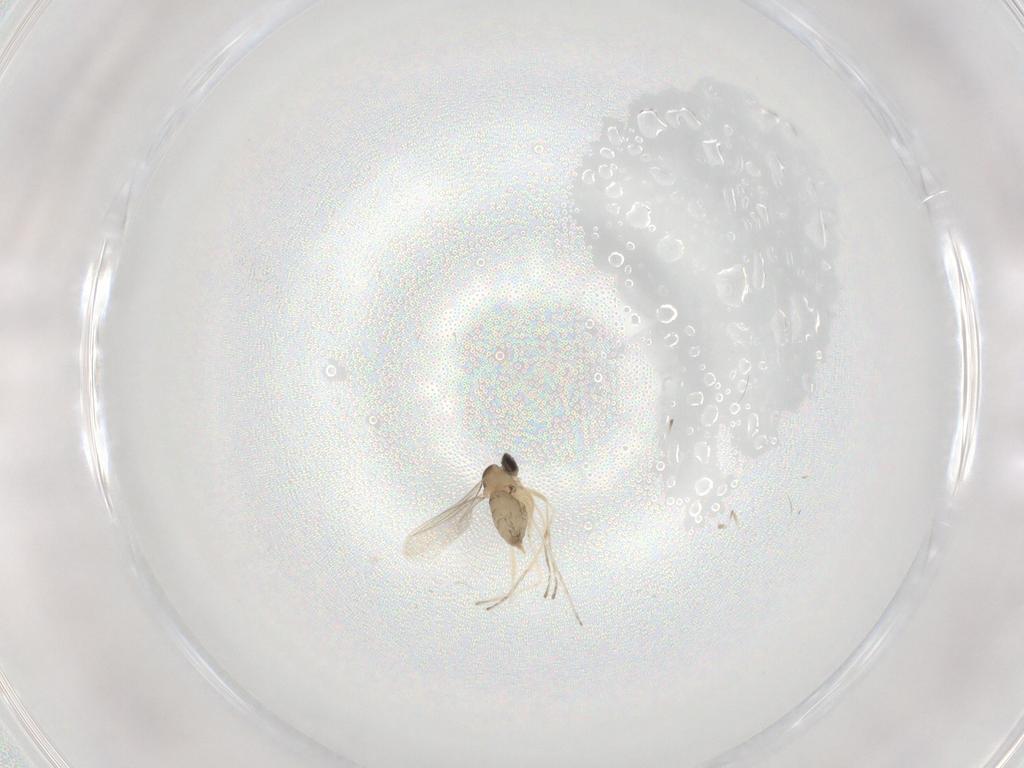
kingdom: Animalia
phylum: Arthropoda
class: Insecta
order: Diptera
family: Cecidomyiidae
